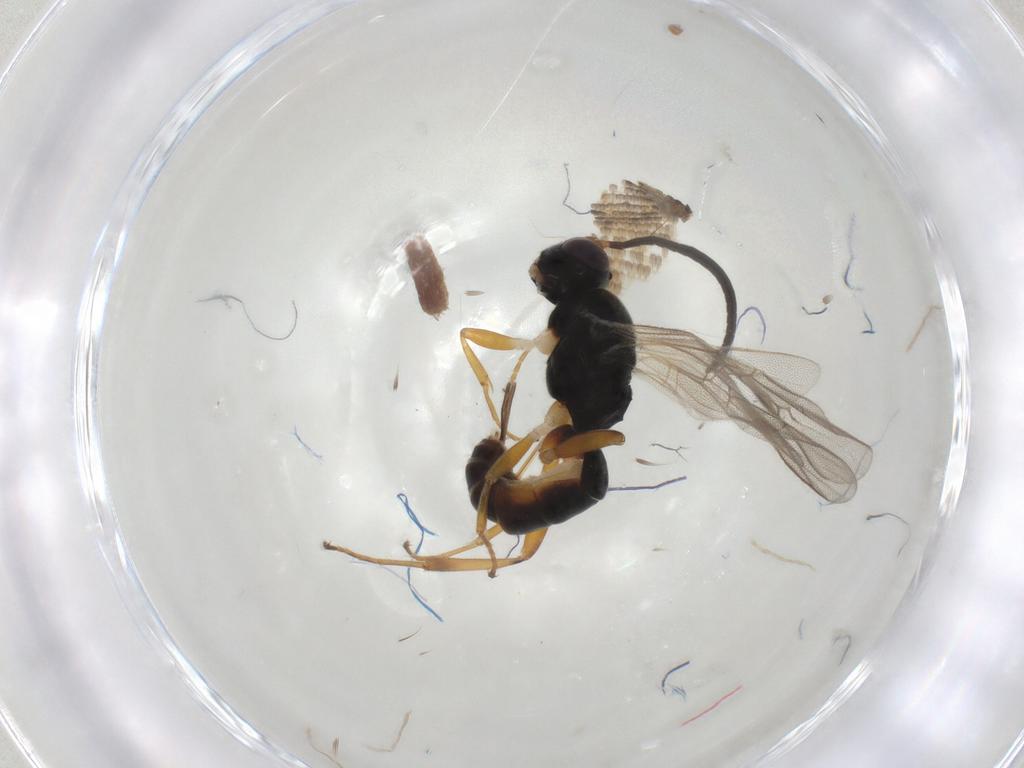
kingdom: Animalia
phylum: Arthropoda
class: Insecta
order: Hymenoptera
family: Ichneumonidae
